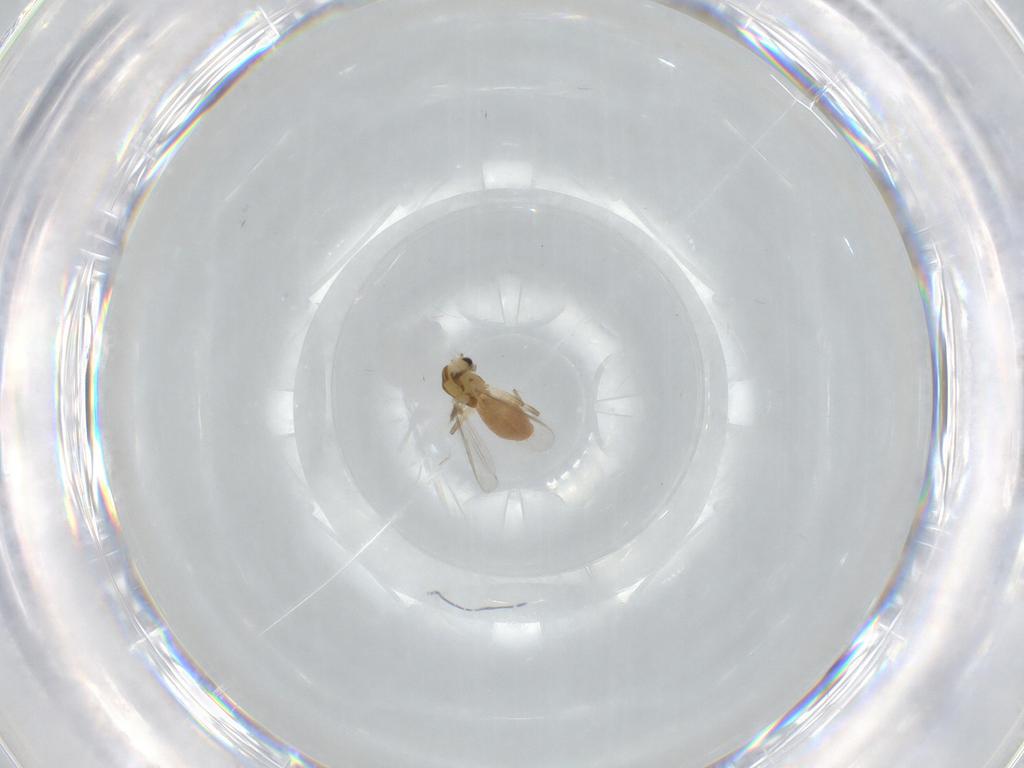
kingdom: Animalia
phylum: Arthropoda
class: Insecta
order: Diptera
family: Chironomidae
